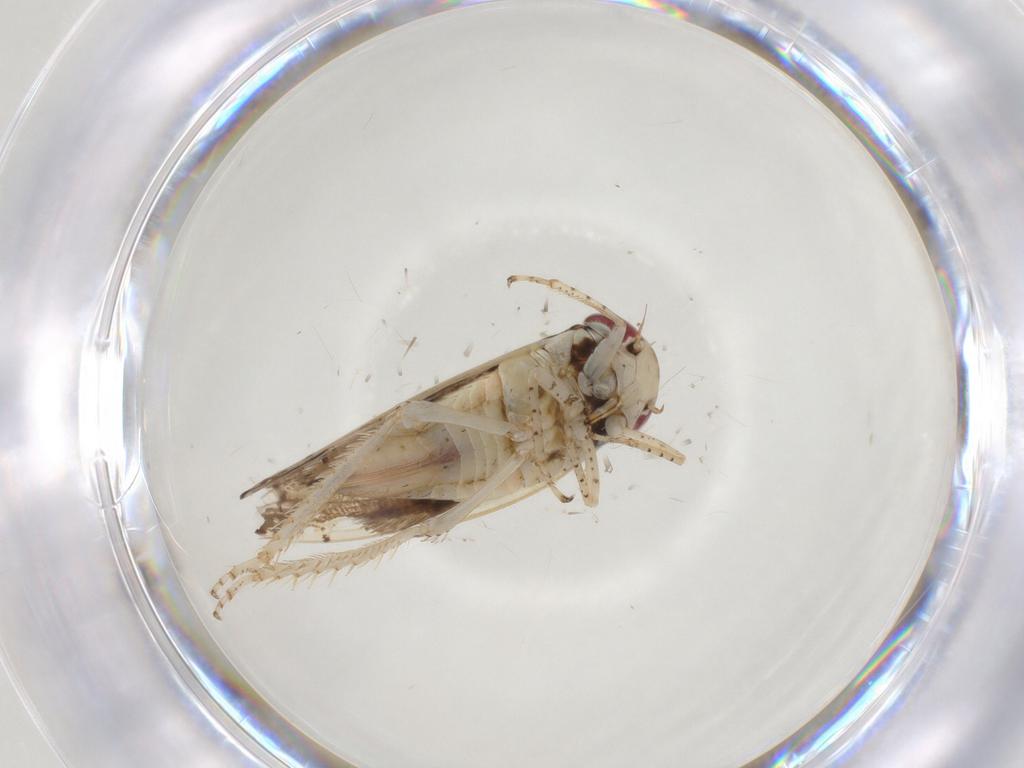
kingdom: Animalia
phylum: Arthropoda
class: Insecta
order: Hemiptera
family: Cicadellidae
